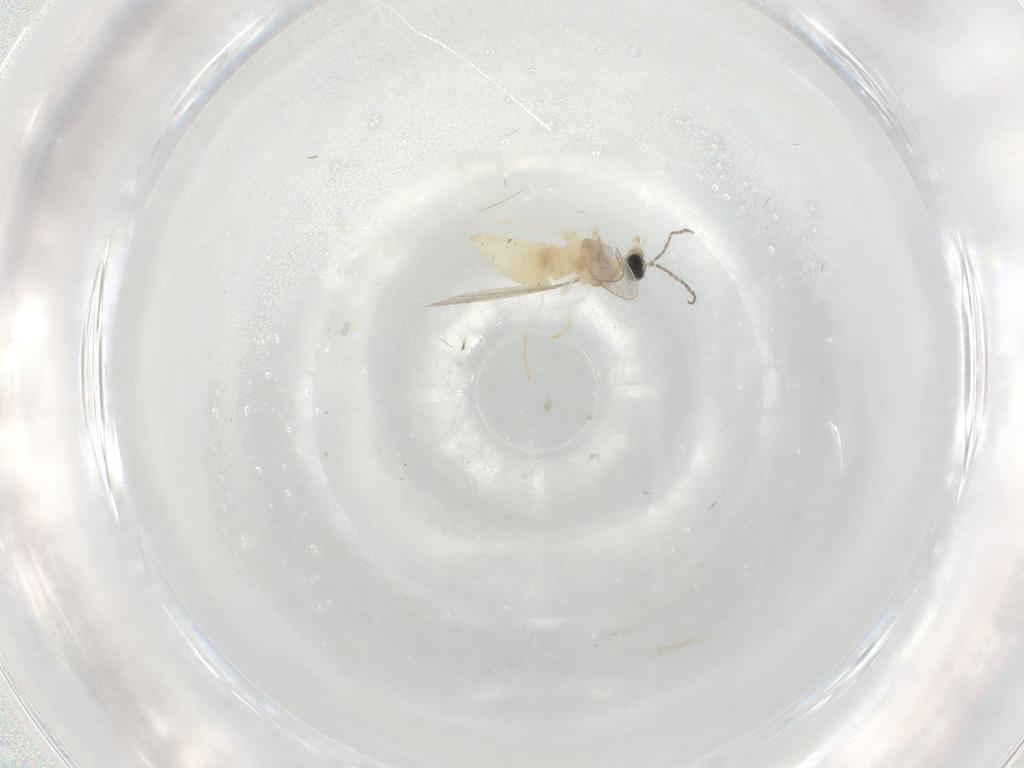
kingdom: Animalia
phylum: Arthropoda
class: Insecta
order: Diptera
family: Cecidomyiidae
